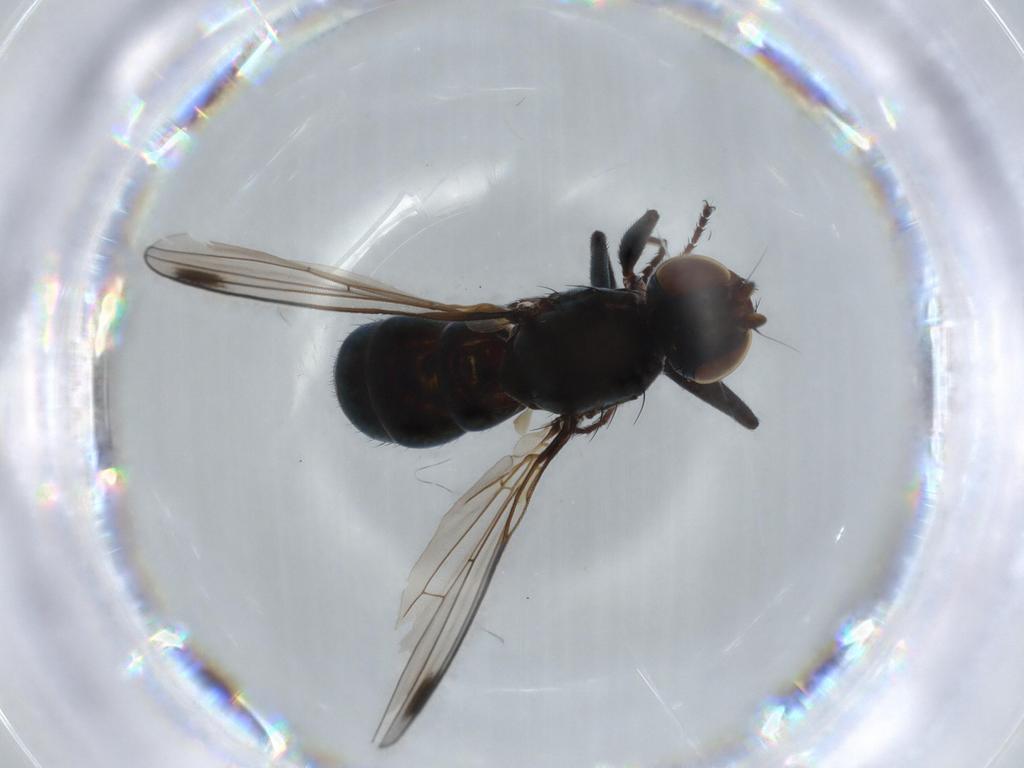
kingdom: Animalia
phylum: Arthropoda
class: Insecta
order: Diptera
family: Sepsidae
